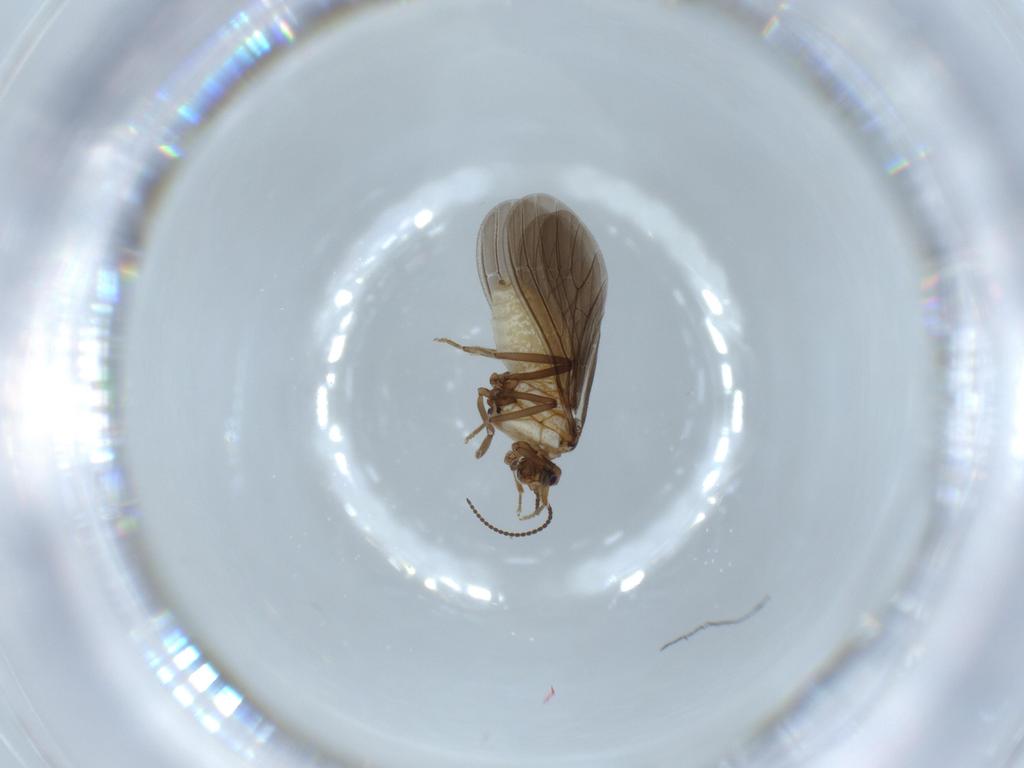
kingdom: Animalia
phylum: Arthropoda
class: Insecta
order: Neuroptera
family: Coniopterygidae
